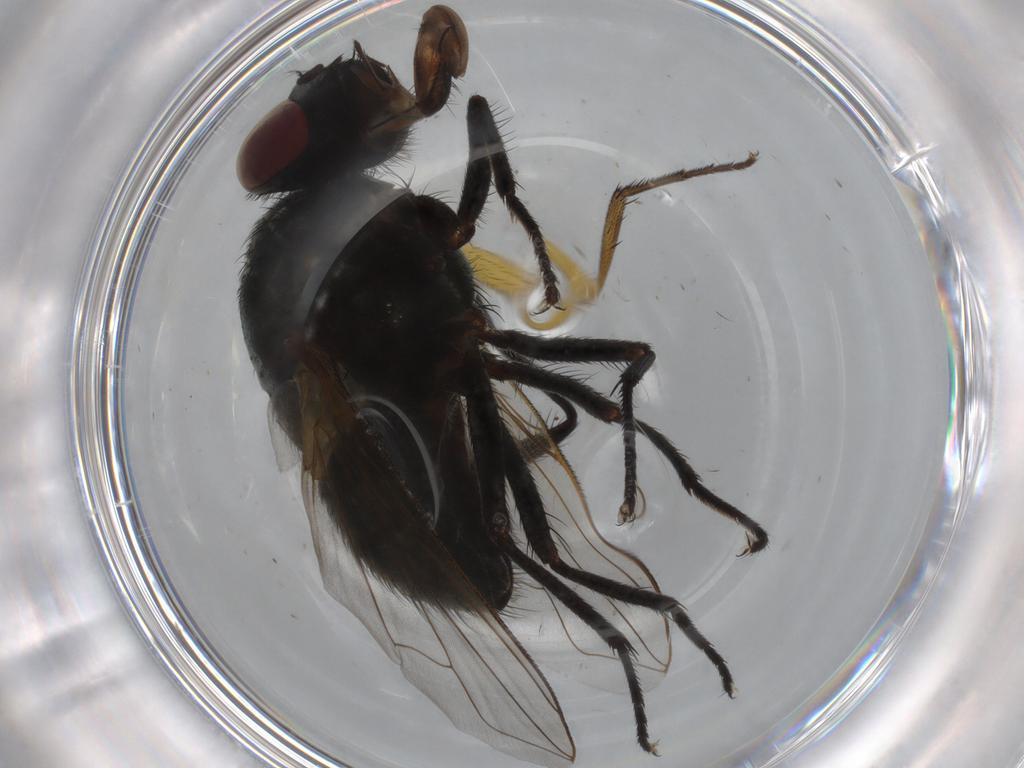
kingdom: Animalia
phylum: Arthropoda
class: Insecta
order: Diptera
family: Muscidae
